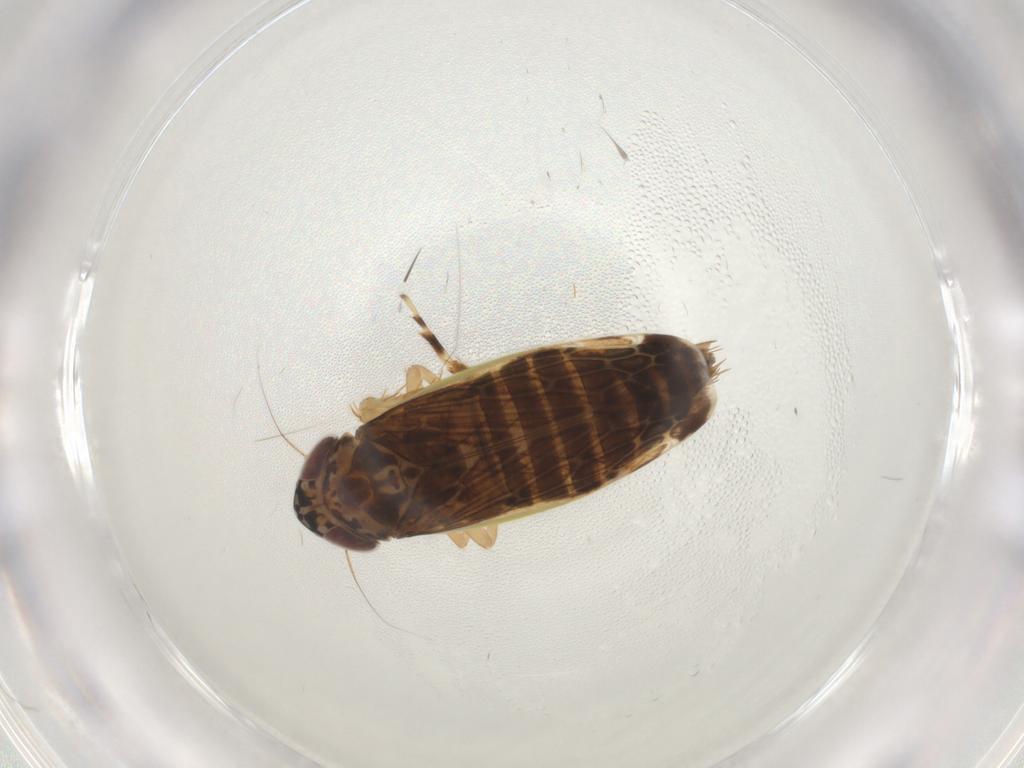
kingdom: Animalia
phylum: Arthropoda
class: Insecta
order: Hemiptera
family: Cicadellidae
